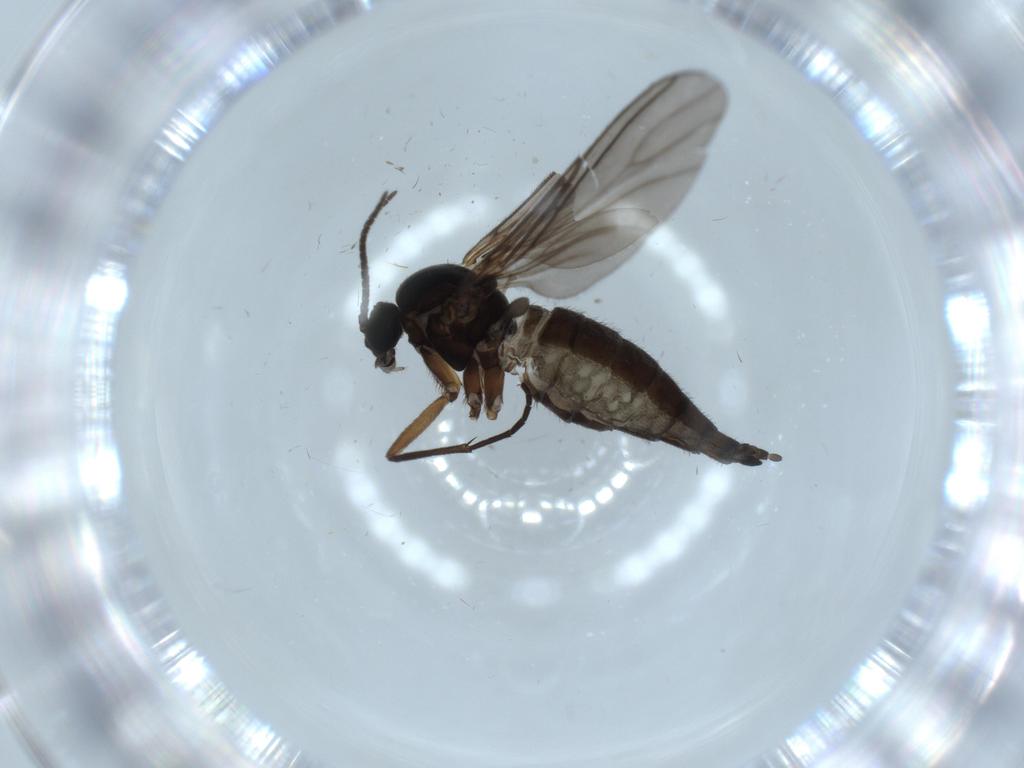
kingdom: Animalia
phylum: Arthropoda
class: Insecta
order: Diptera
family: Sciaridae
